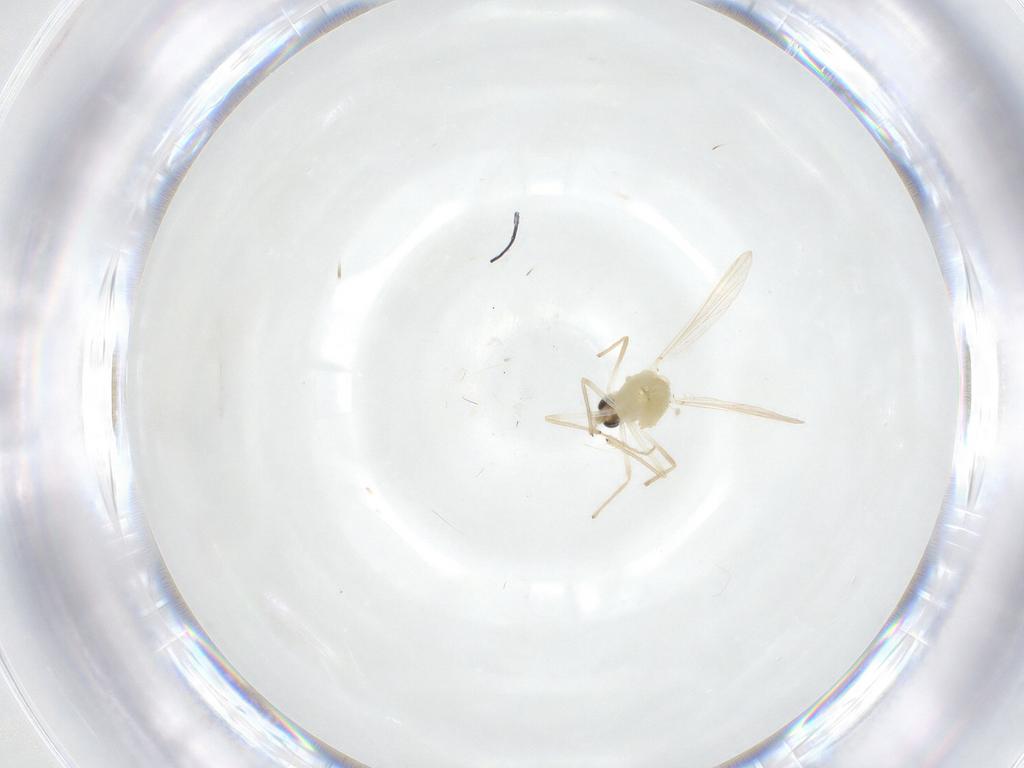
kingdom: Animalia
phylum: Arthropoda
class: Insecta
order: Diptera
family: Chironomidae
